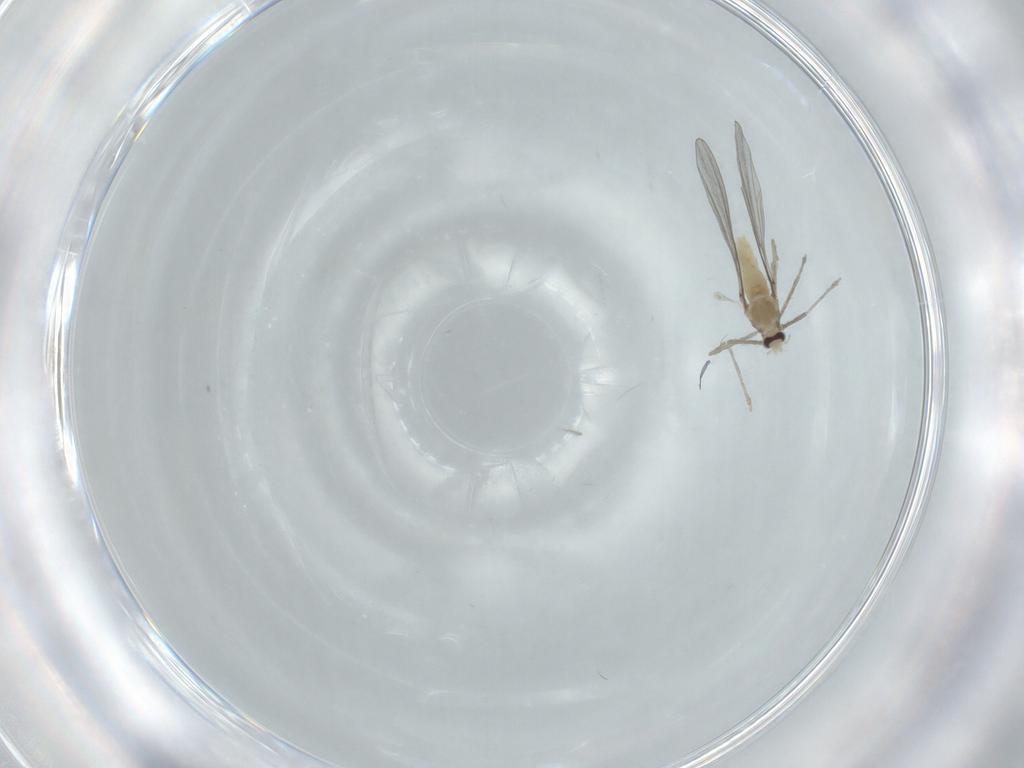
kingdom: Animalia
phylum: Arthropoda
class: Insecta
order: Diptera
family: Cecidomyiidae
